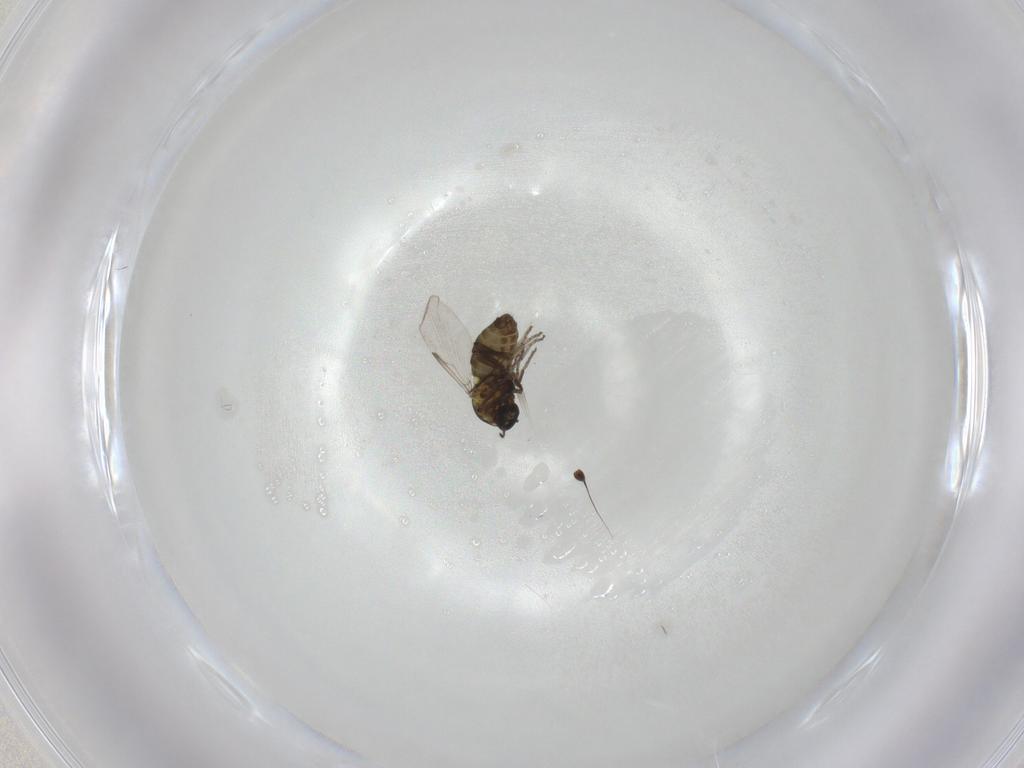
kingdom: Animalia
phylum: Arthropoda
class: Insecta
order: Diptera
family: Ceratopogonidae
